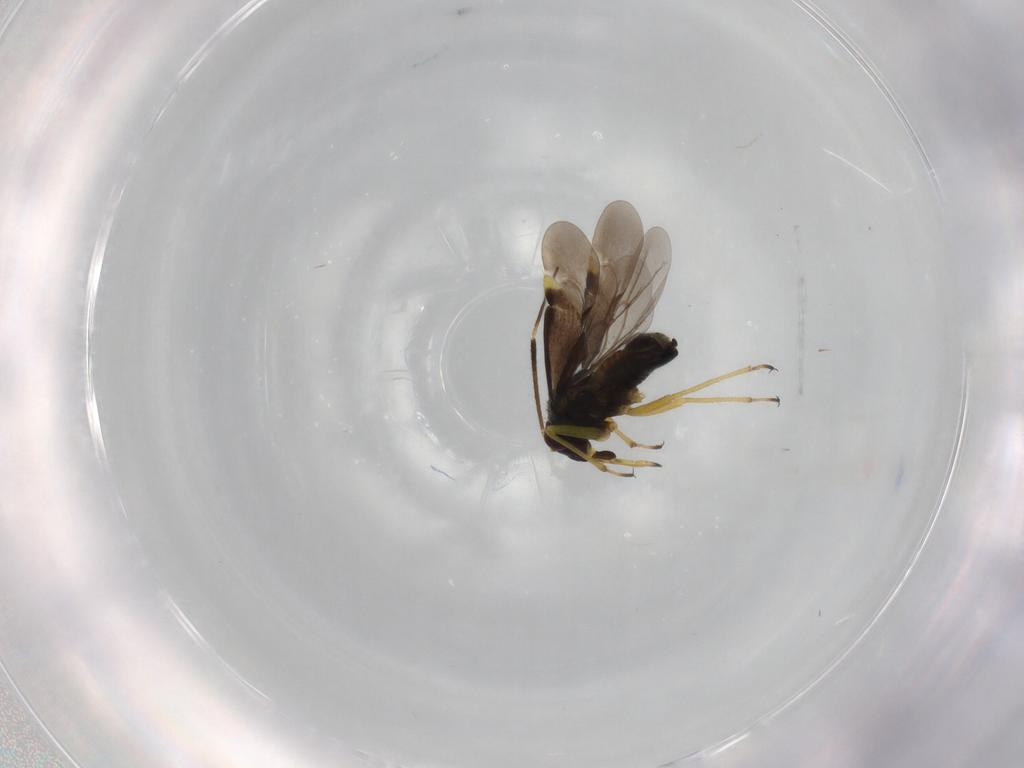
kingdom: Animalia
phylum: Arthropoda
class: Insecta
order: Hemiptera
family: Miridae
